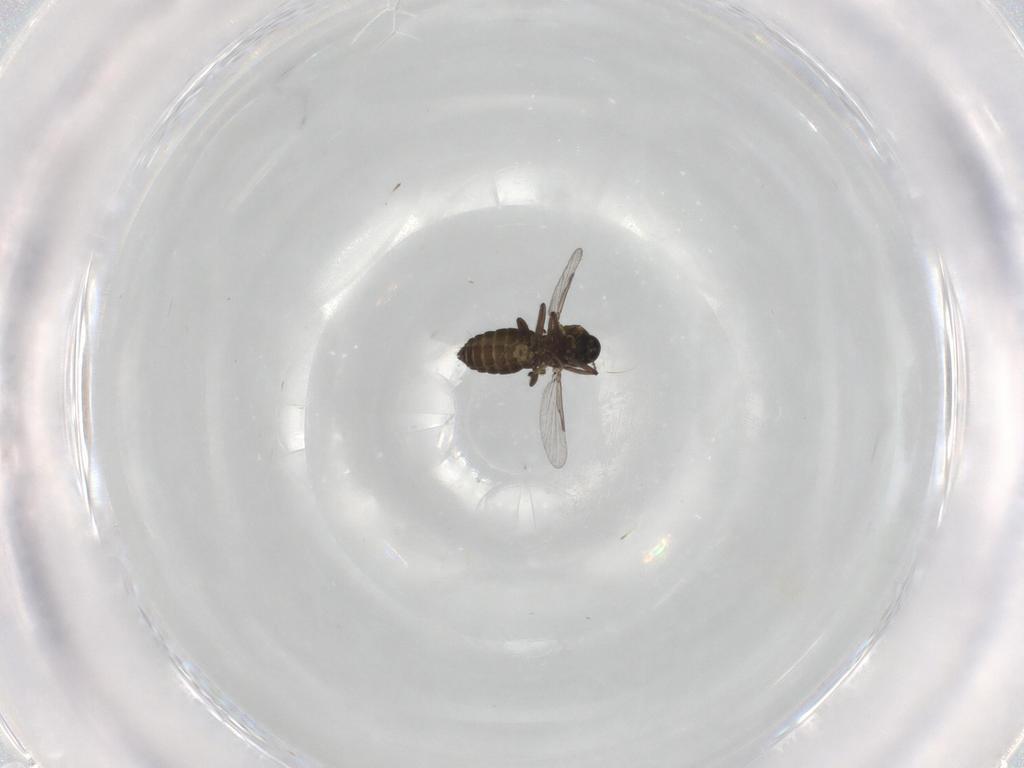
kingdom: Animalia
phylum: Arthropoda
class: Insecta
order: Diptera
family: Ceratopogonidae
